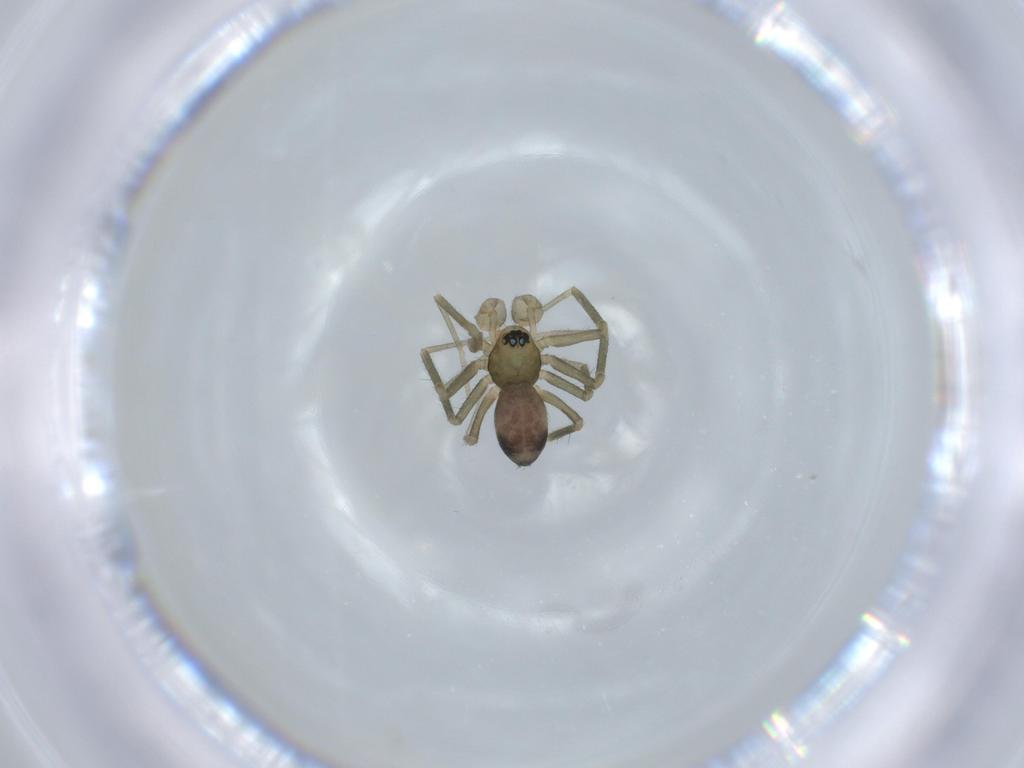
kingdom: Animalia
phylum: Arthropoda
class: Arachnida
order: Araneae
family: Linyphiidae
